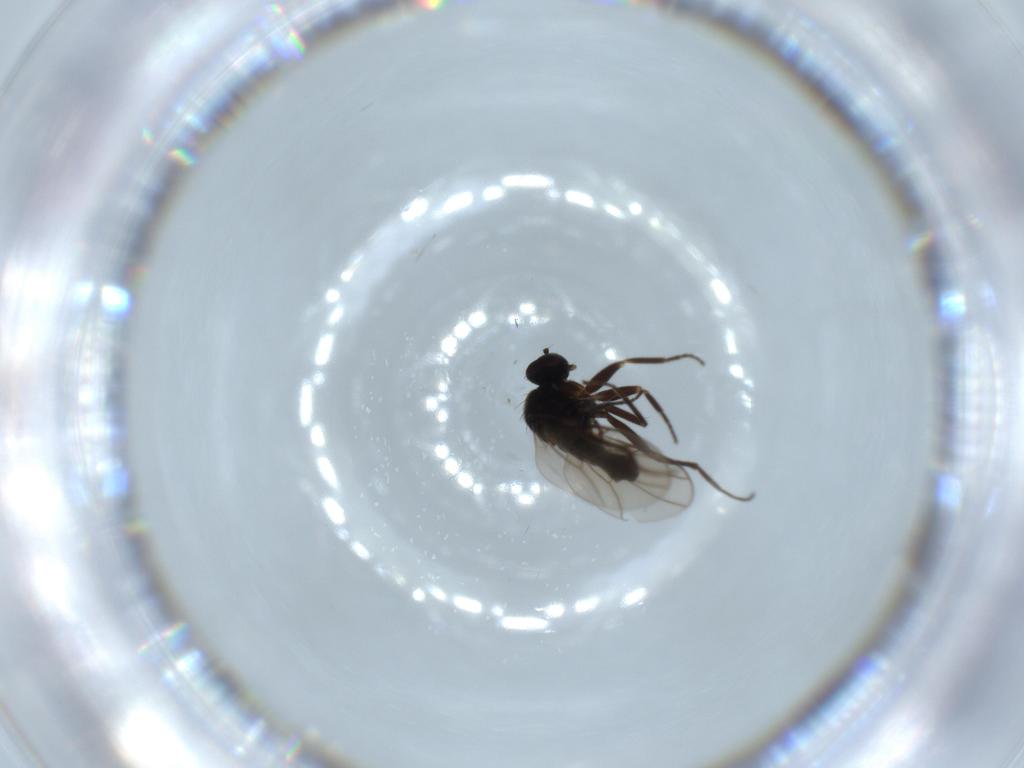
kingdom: Animalia
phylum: Arthropoda
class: Insecta
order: Diptera
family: Hybotidae
